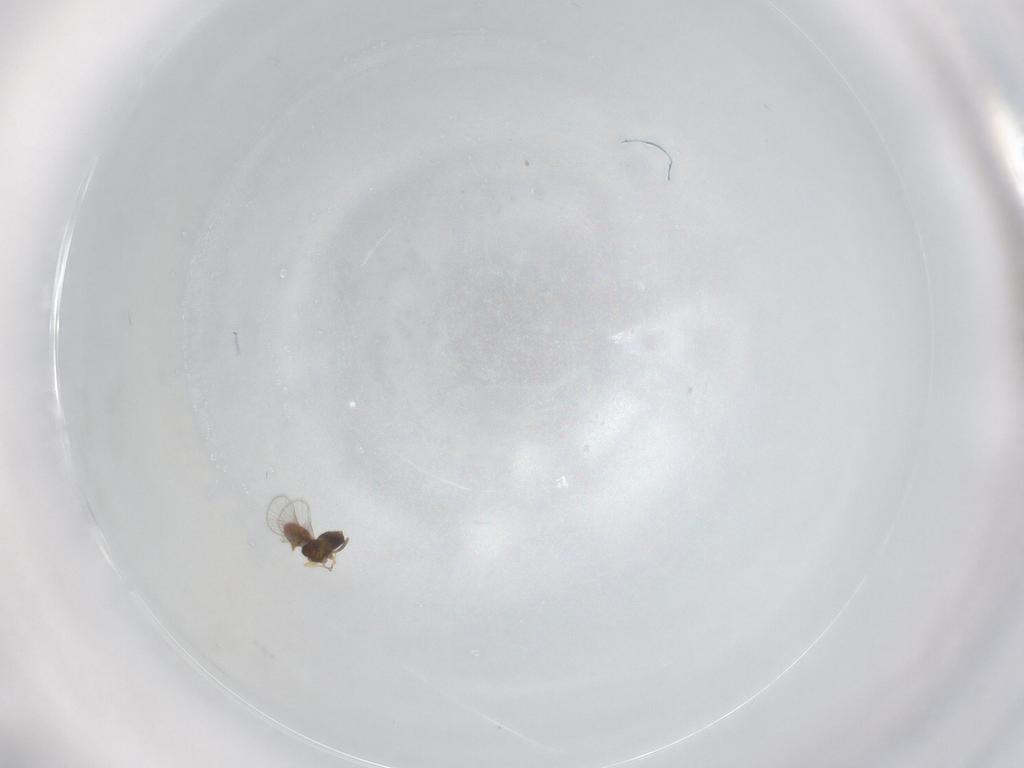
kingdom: Animalia
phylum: Arthropoda
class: Insecta
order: Hymenoptera
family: Trichogrammatidae
